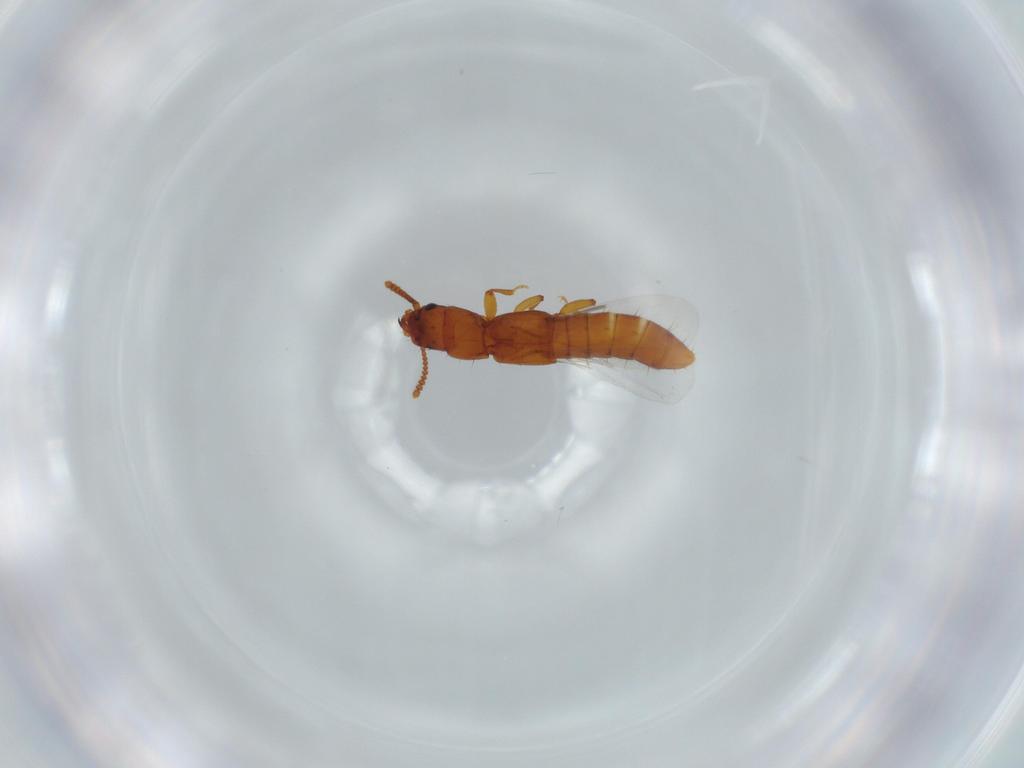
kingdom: Animalia
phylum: Arthropoda
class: Insecta
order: Coleoptera
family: Staphylinidae
